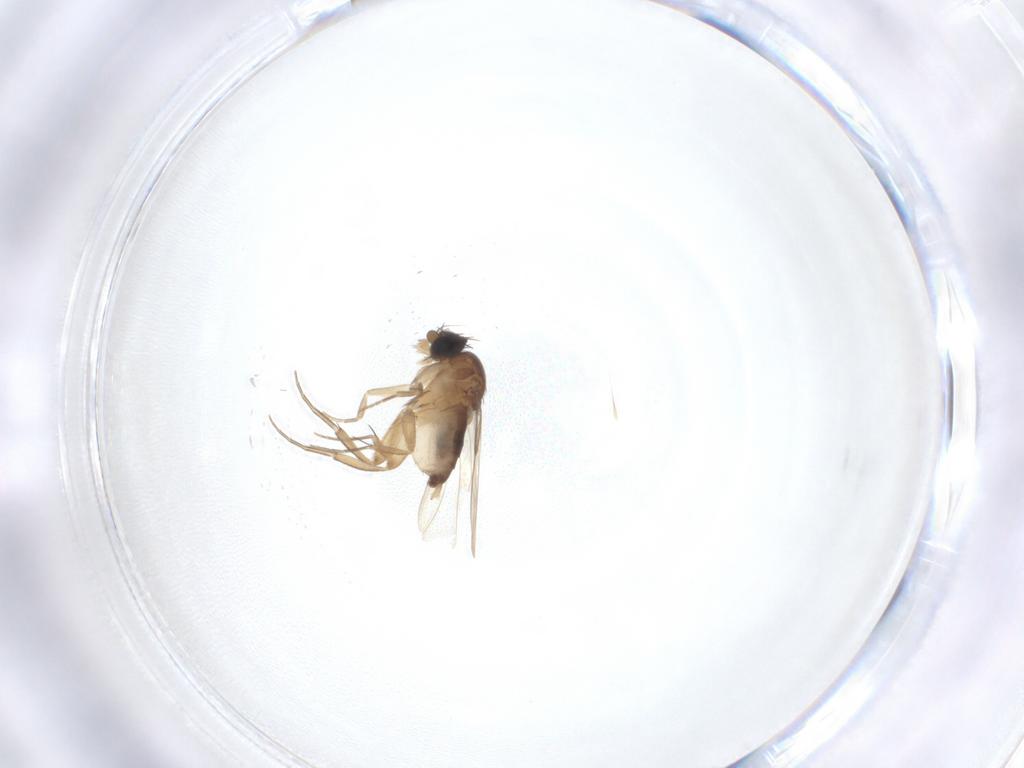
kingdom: Animalia
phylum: Arthropoda
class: Insecta
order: Diptera
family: Phoridae
